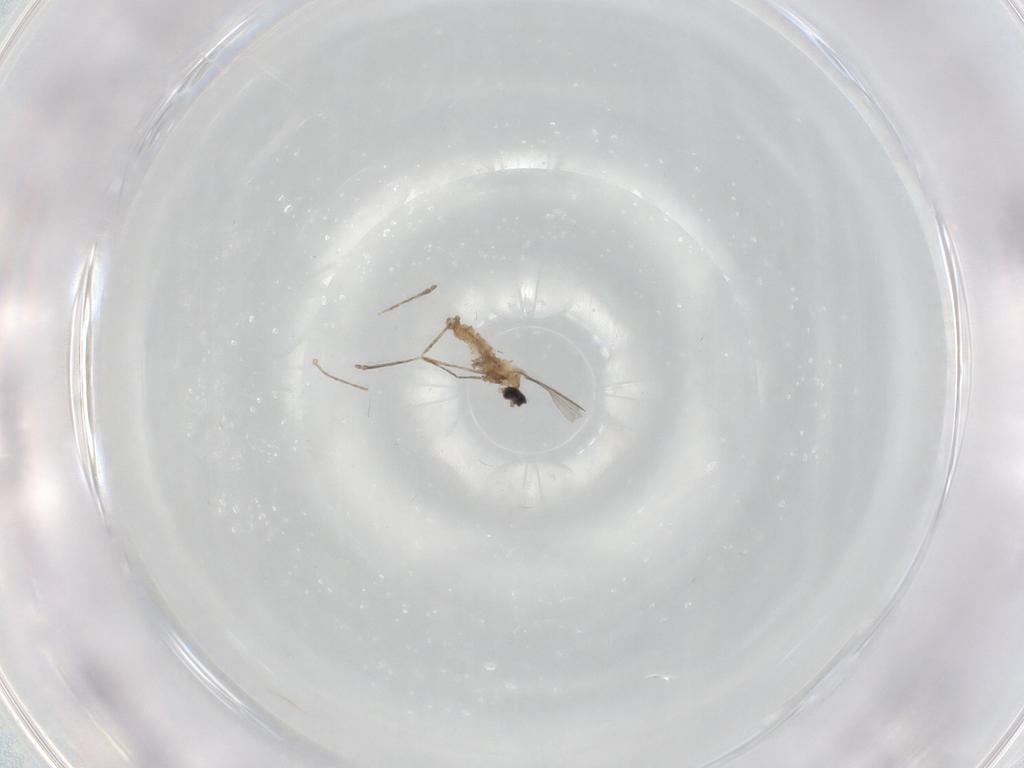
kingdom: Animalia
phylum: Arthropoda
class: Insecta
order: Diptera
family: Cecidomyiidae
